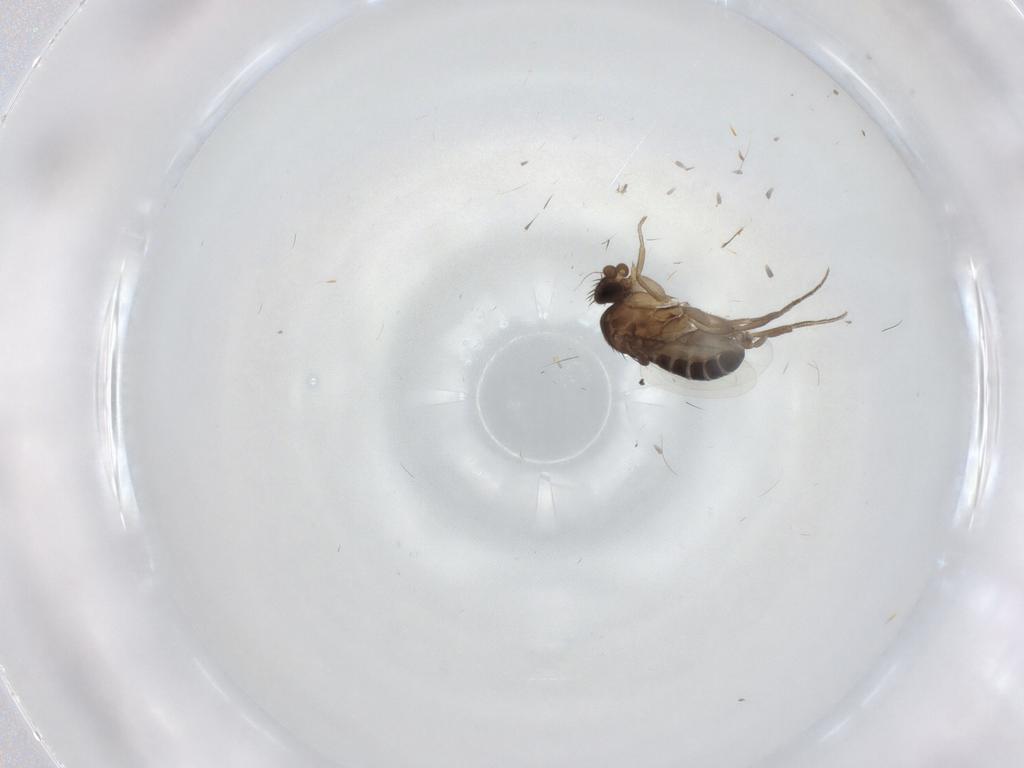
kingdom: Animalia
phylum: Arthropoda
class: Insecta
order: Diptera
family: Phoridae
